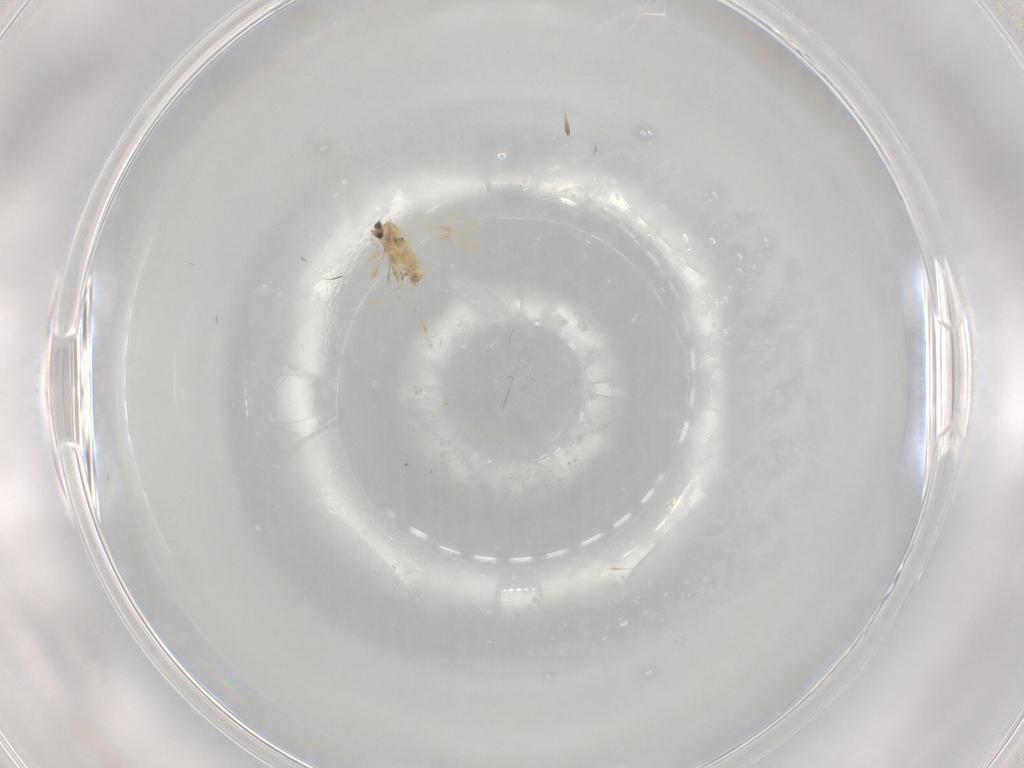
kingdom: Animalia
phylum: Arthropoda
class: Insecta
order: Diptera
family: Cecidomyiidae
